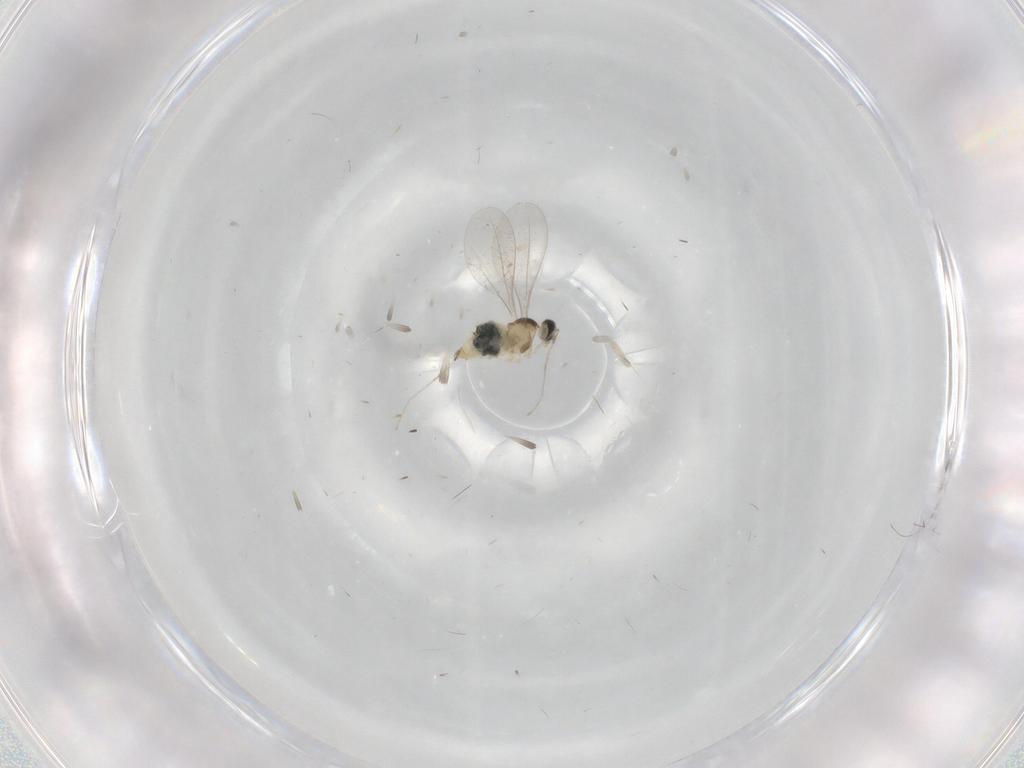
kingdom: Animalia
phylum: Arthropoda
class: Insecta
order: Diptera
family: Cecidomyiidae
